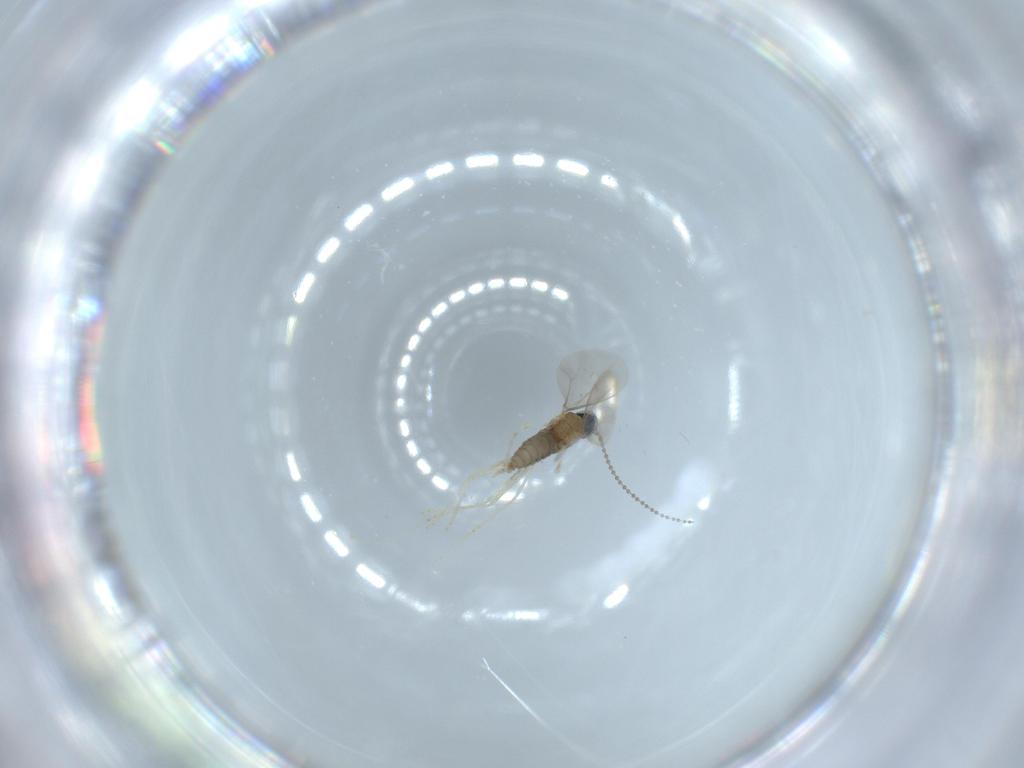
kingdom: Animalia
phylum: Arthropoda
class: Insecta
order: Diptera
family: Cecidomyiidae
